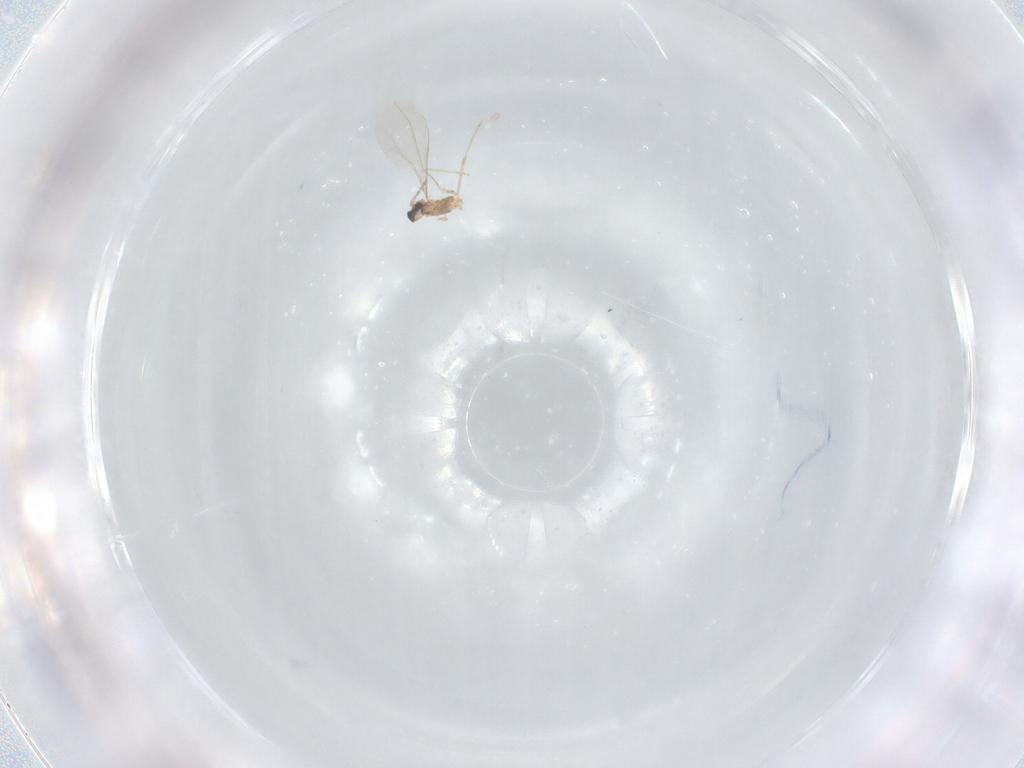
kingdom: Animalia
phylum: Arthropoda
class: Insecta
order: Diptera
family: Cecidomyiidae
